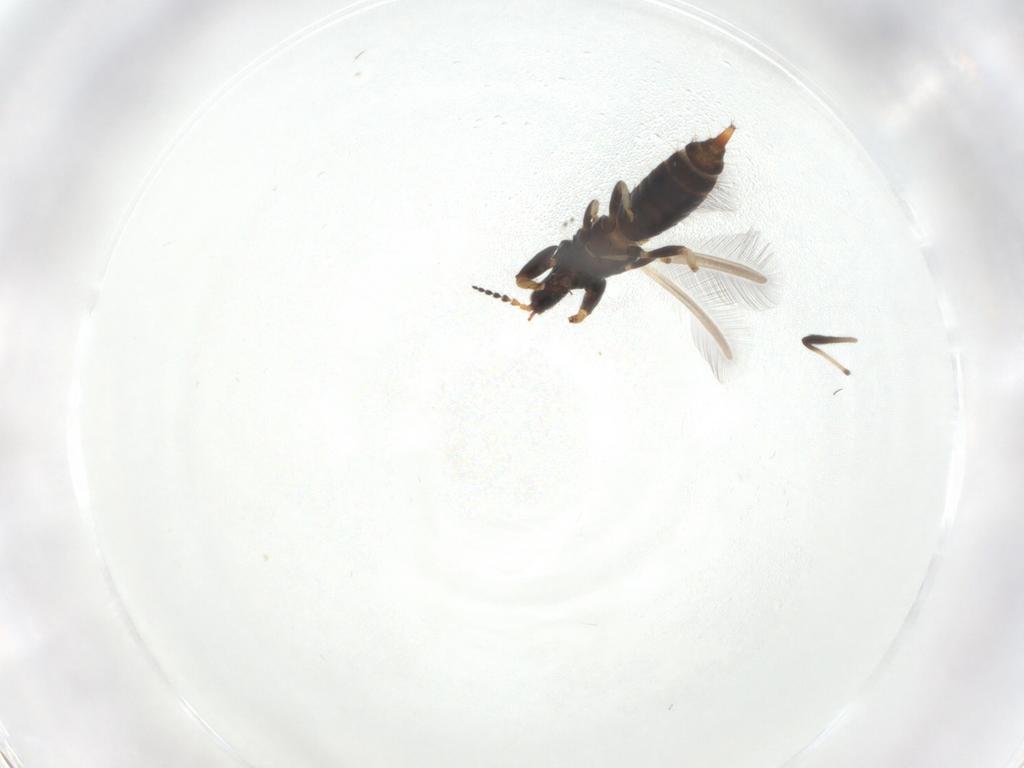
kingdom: Animalia
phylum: Arthropoda
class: Insecta
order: Thysanoptera
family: Phlaeothripidae
